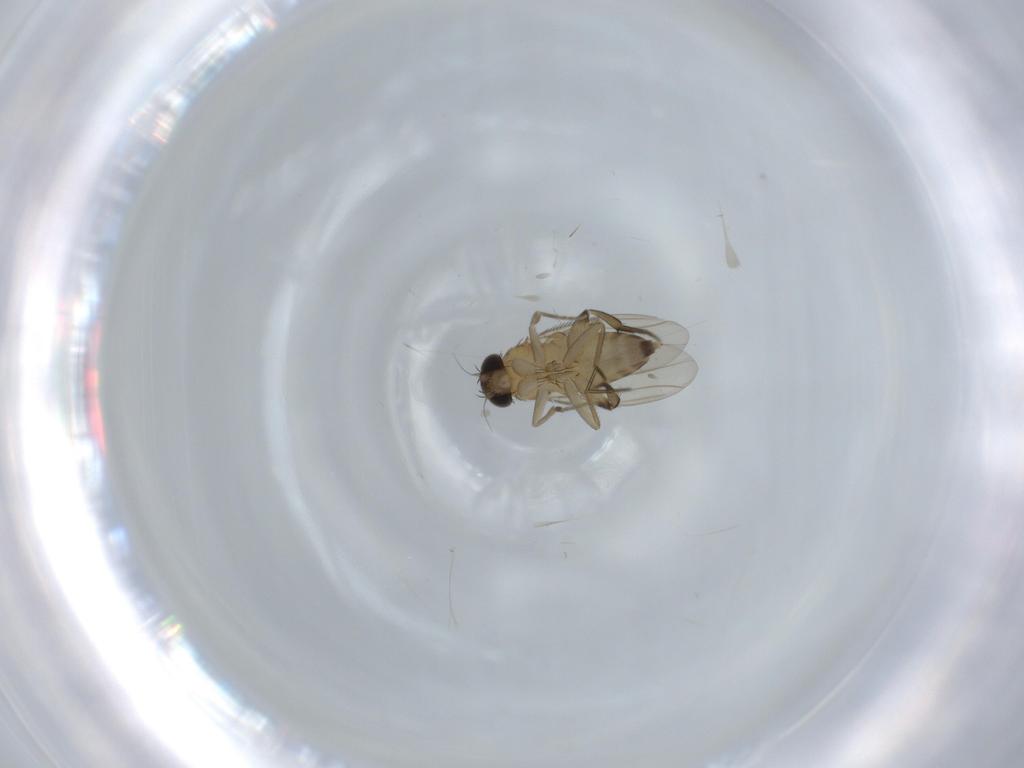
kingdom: Animalia
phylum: Arthropoda
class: Insecta
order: Diptera
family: Phoridae
